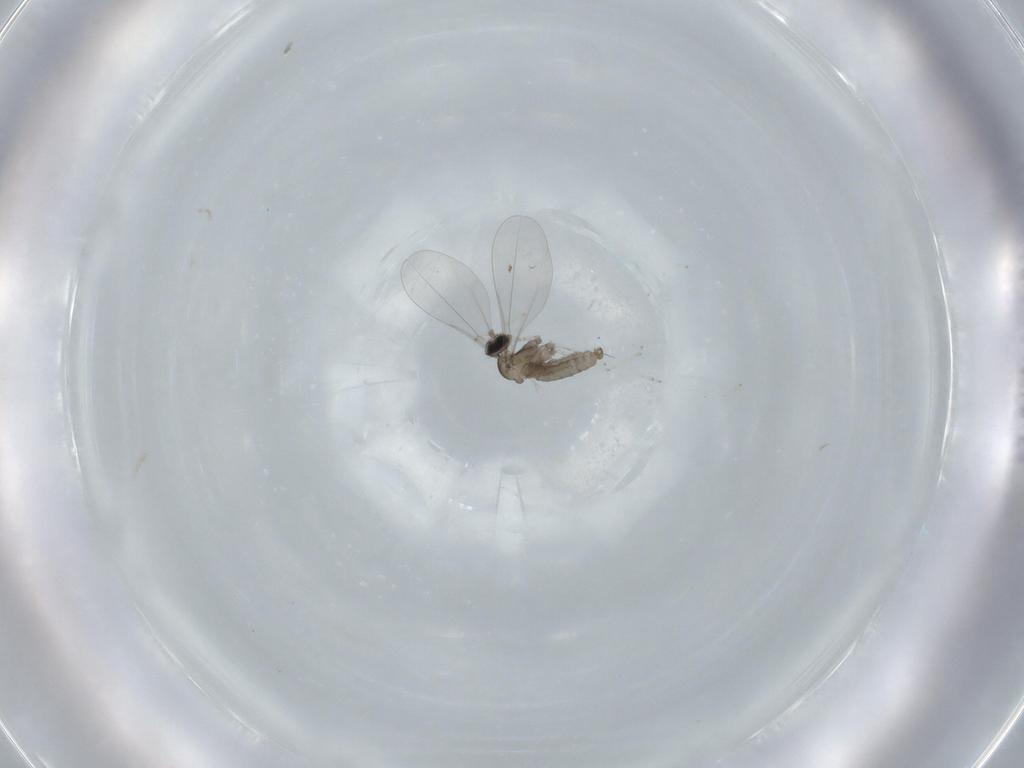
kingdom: Animalia
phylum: Arthropoda
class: Insecta
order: Diptera
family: Cecidomyiidae
